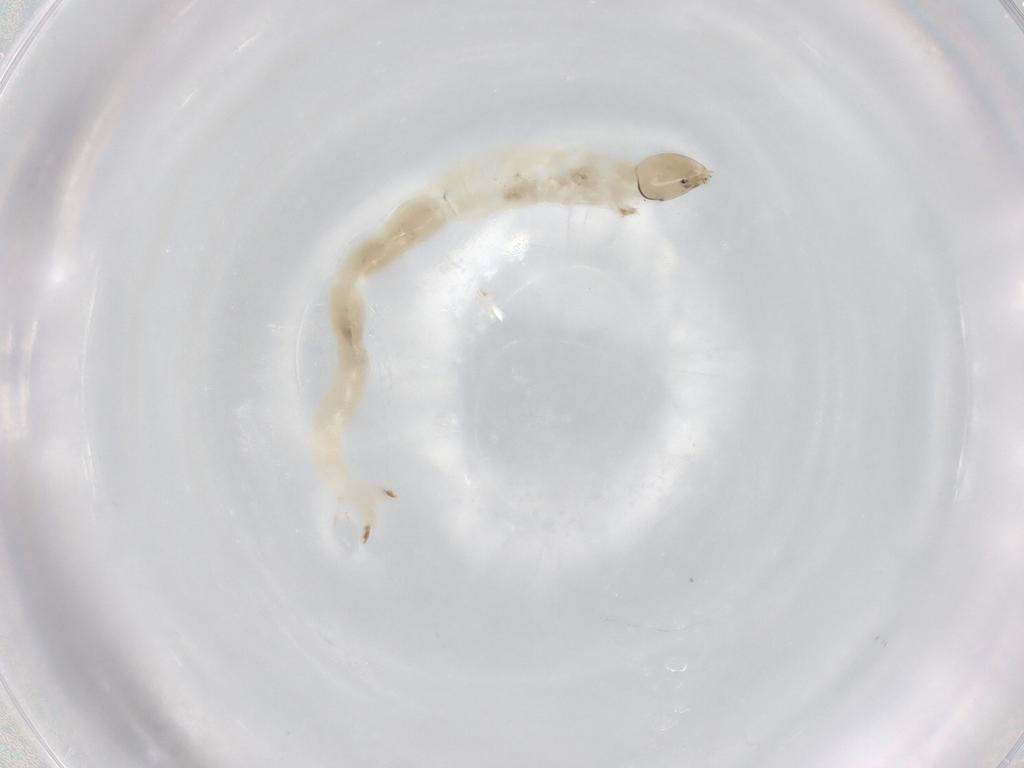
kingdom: Animalia
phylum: Arthropoda
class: Insecta
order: Diptera
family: Chironomidae
